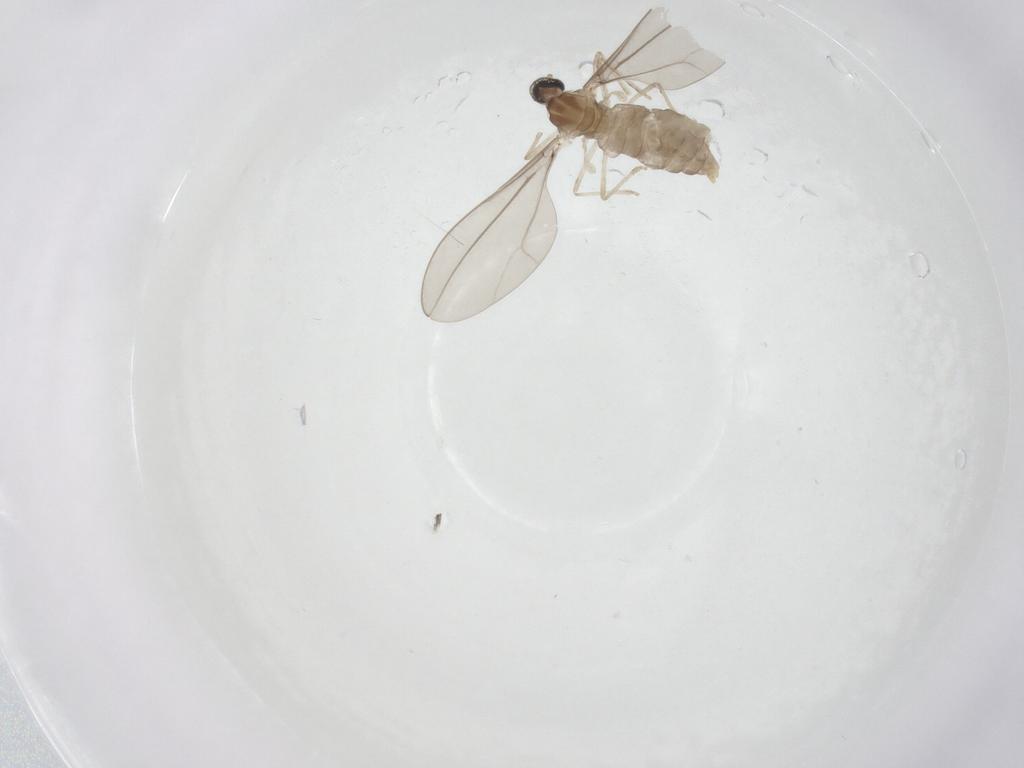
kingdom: Animalia
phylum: Arthropoda
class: Insecta
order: Diptera
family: Cecidomyiidae
